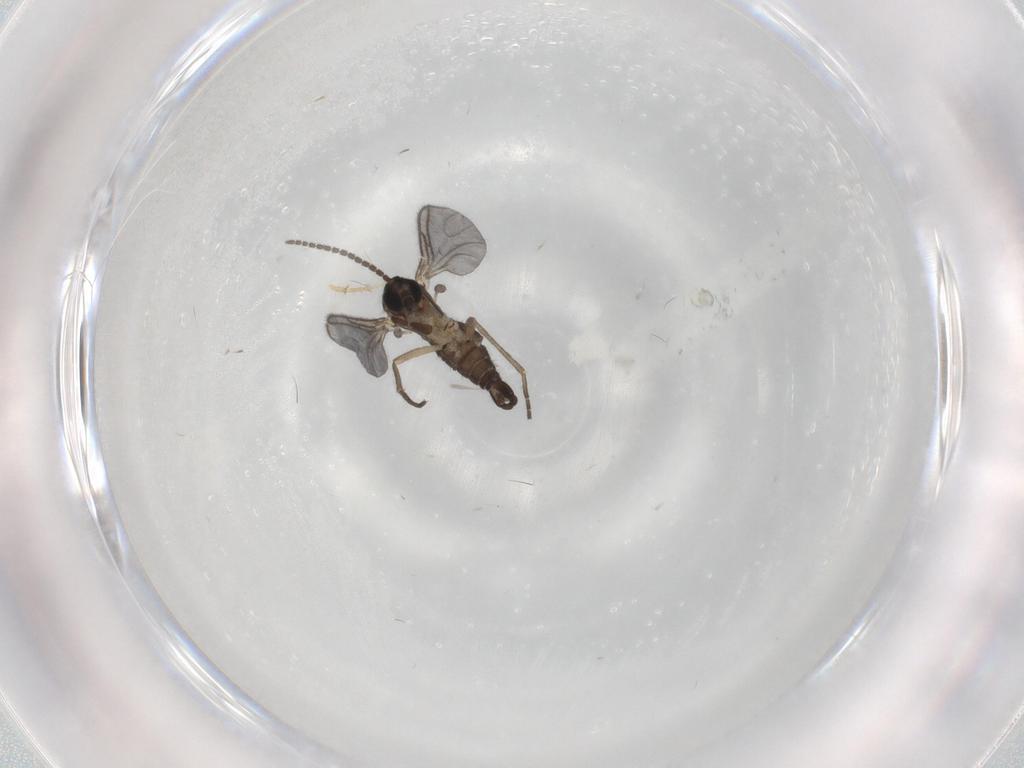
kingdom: Animalia
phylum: Arthropoda
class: Insecta
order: Diptera
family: Sciaridae
